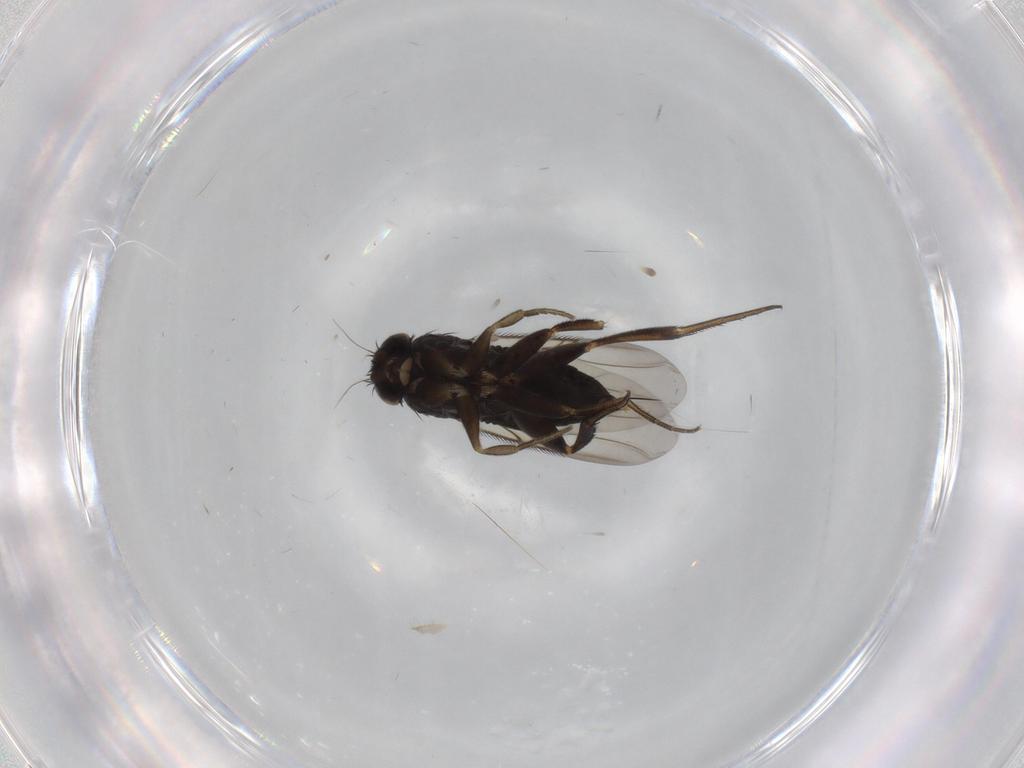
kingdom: Animalia
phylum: Arthropoda
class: Insecta
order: Diptera
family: Phoridae
